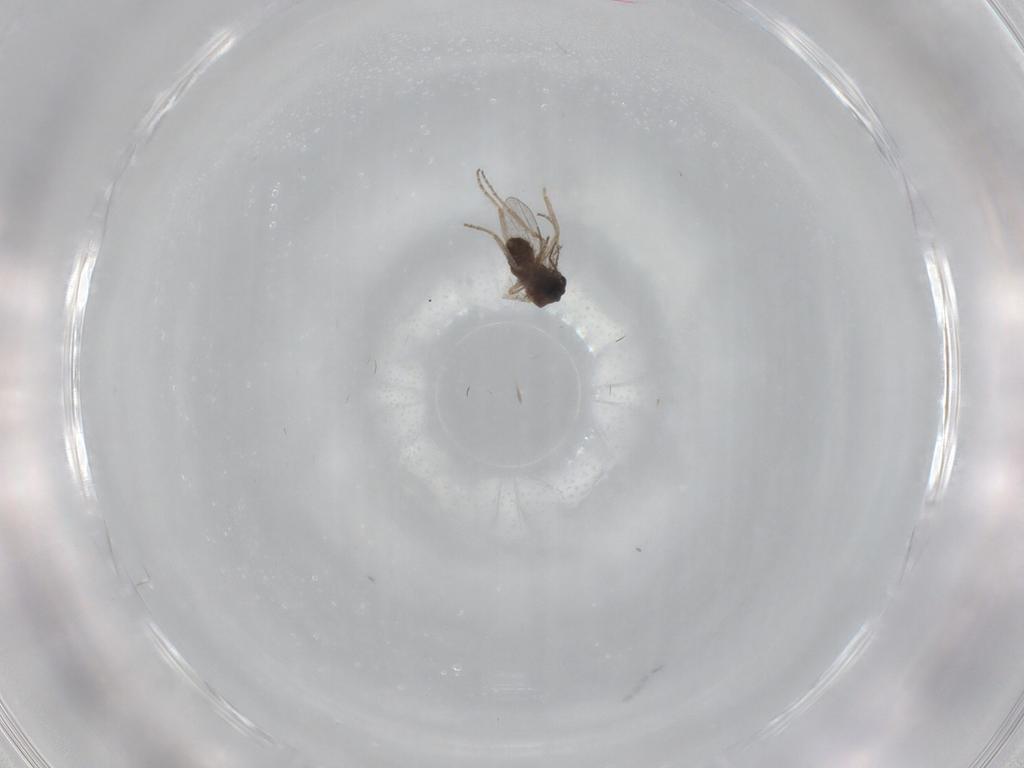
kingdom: Animalia
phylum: Arthropoda
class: Insecta
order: Diptera
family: Ceratopogonidae
